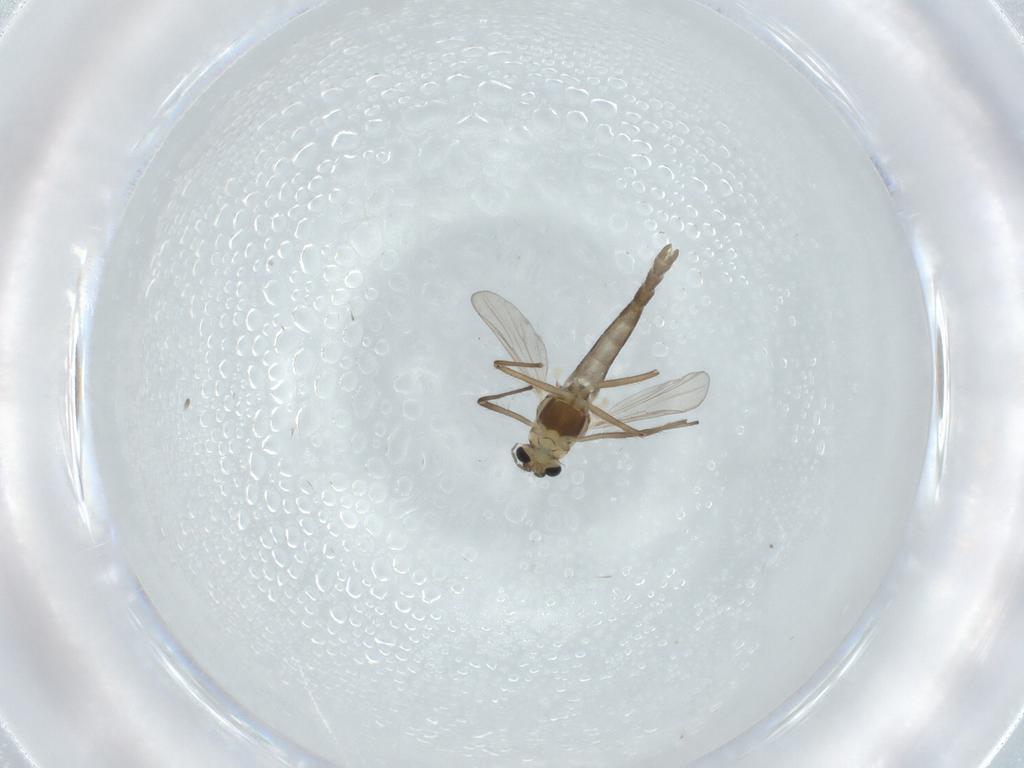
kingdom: Animalia
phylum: Arthropoda
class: Insecta
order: Diptera
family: Chironomidae
